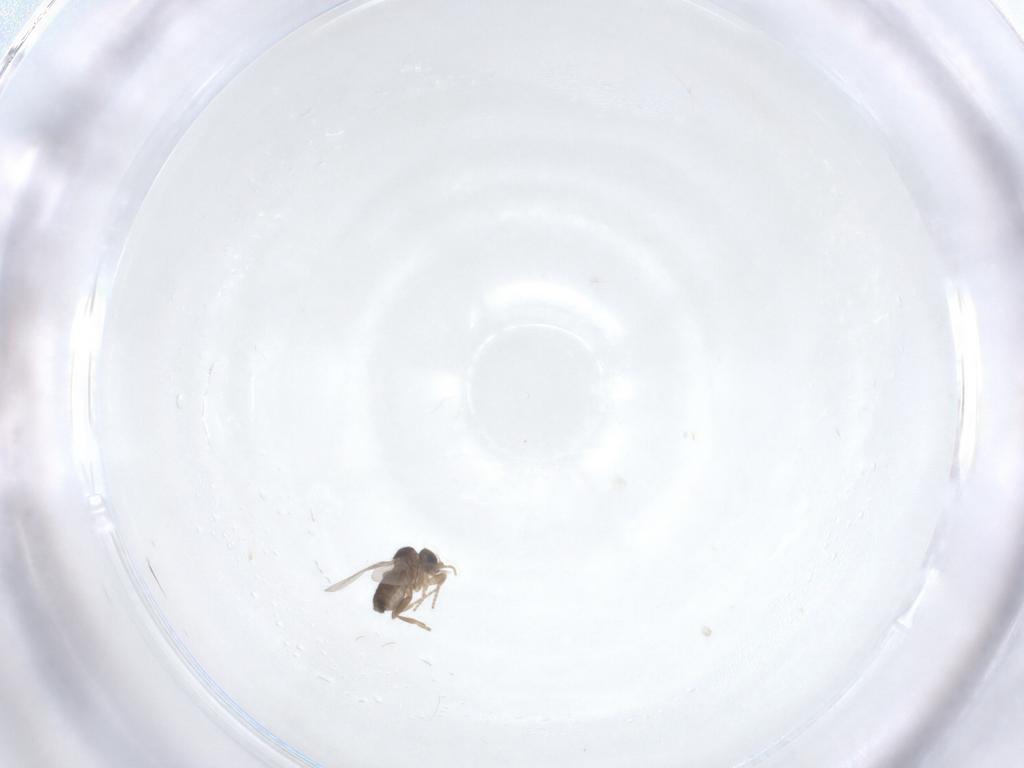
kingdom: Animalia
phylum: Arthropoda
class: Insecta
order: Diptera
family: Phoridae
